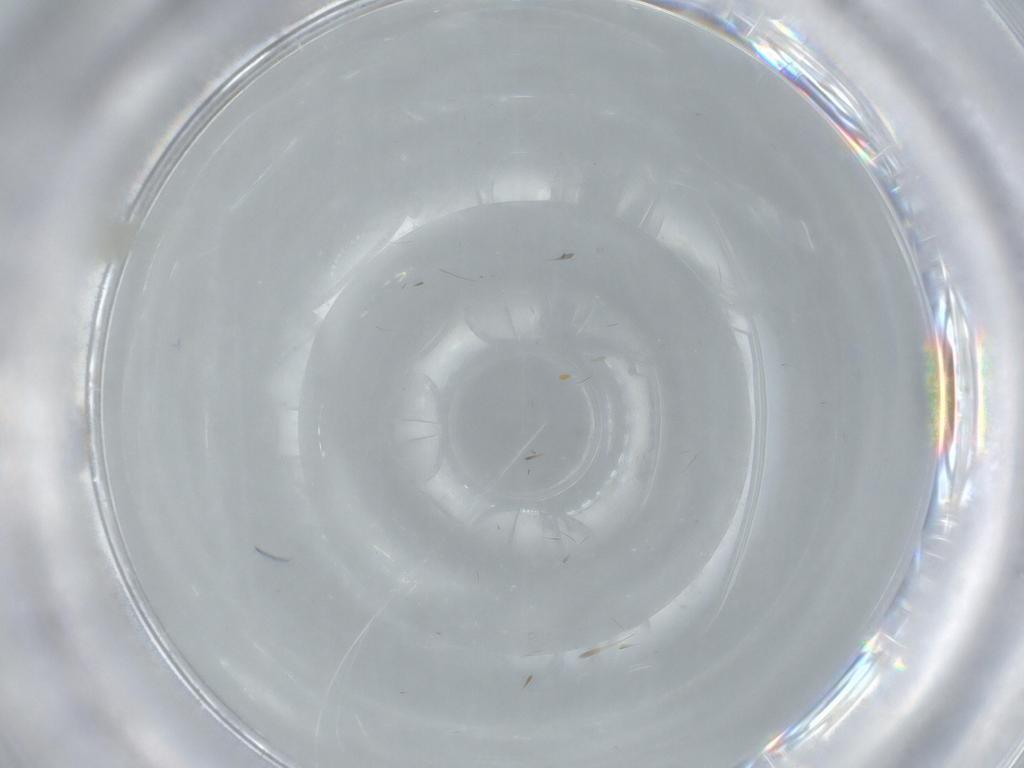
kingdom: Animalia
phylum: Arthropoda
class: Insecta
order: Hemiptera
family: Aleyrodidae
